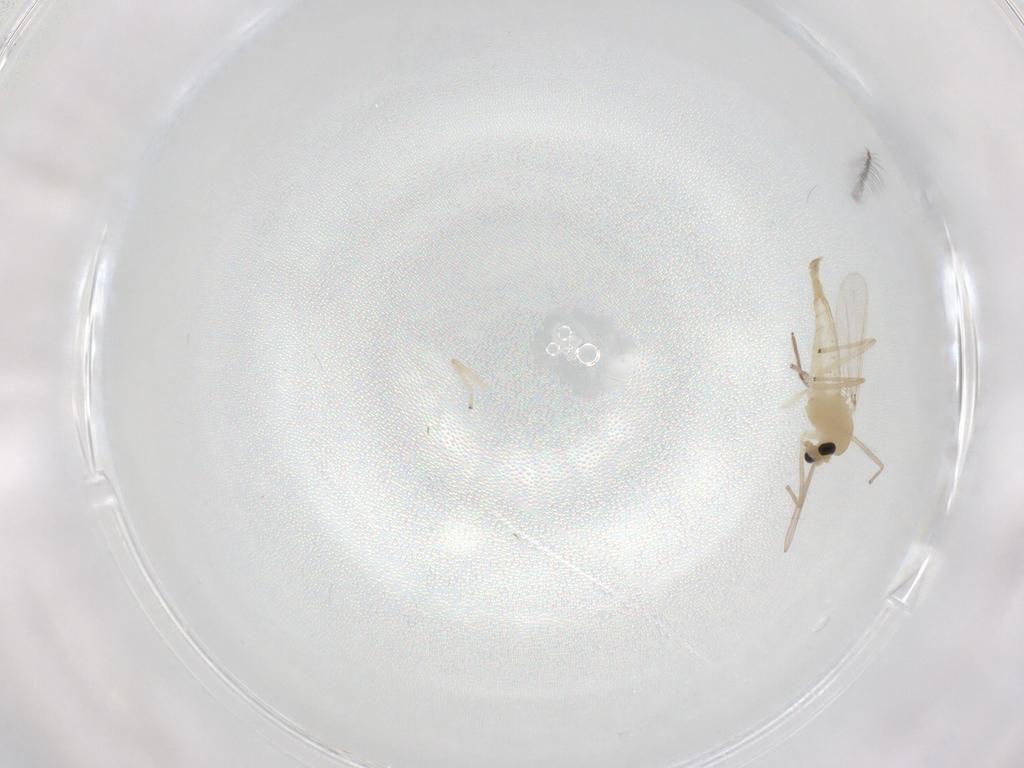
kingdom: Animalia
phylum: Arthropoda
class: Insecta
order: Diptera
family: Chironomidae
